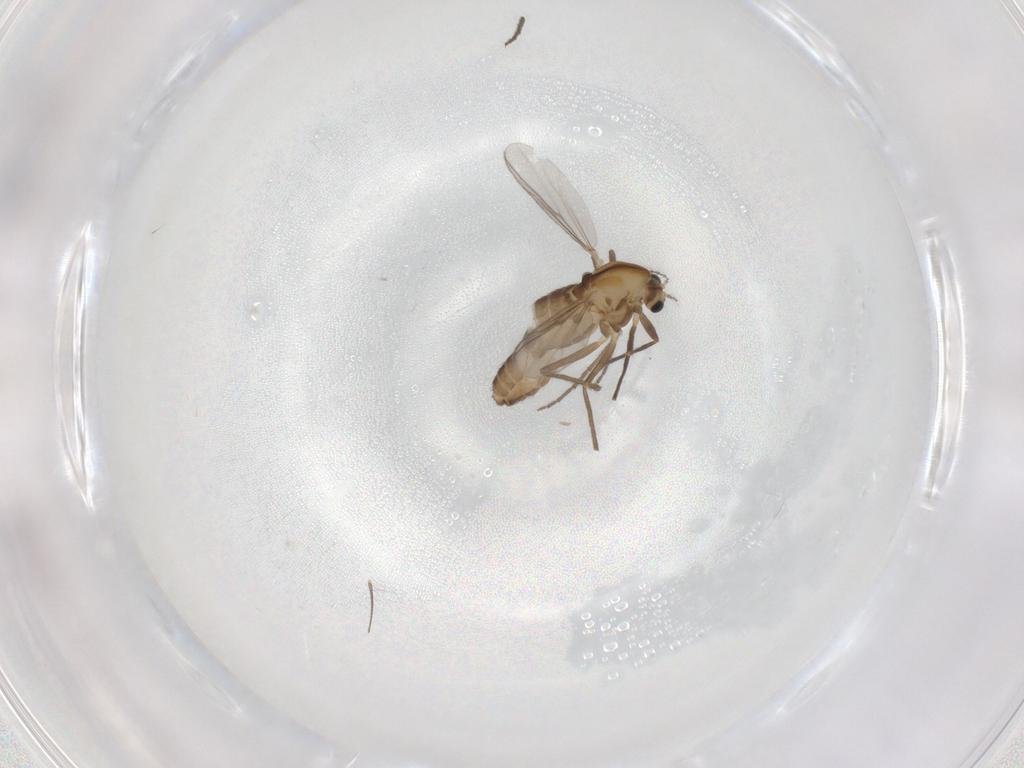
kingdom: Animalia
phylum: Arthropoda
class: Insecta
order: Diptera
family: Chironomidae
